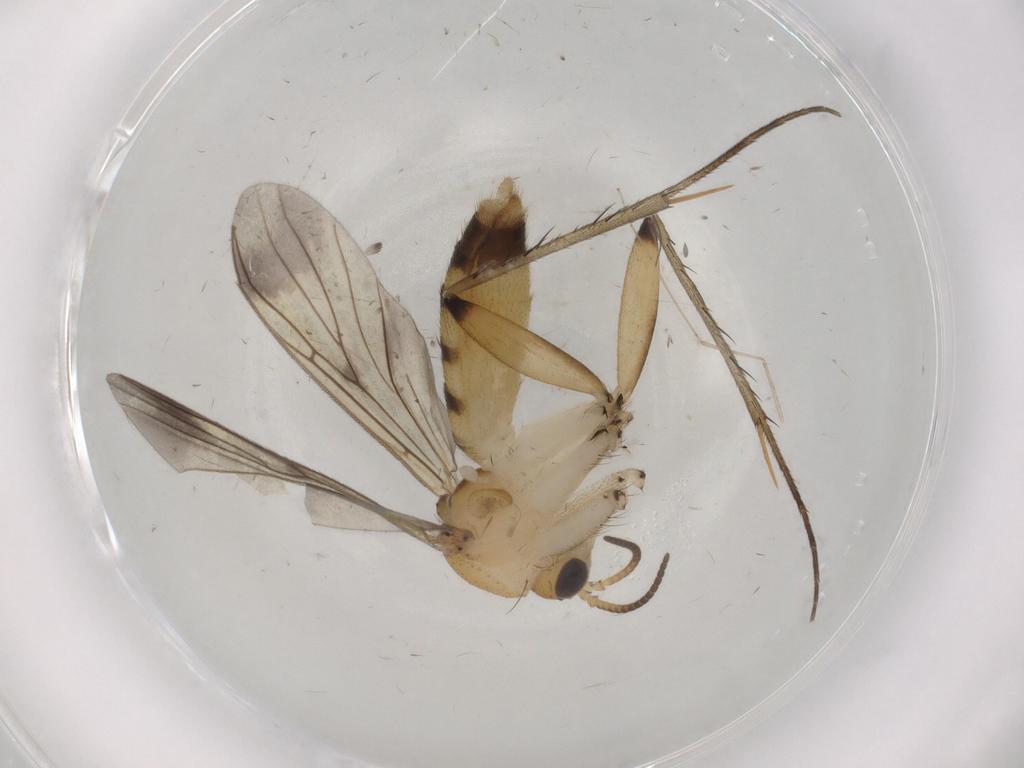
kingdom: Animalia
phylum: Arthropoda
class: Insecta
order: Diptera
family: Mycetophilidae
